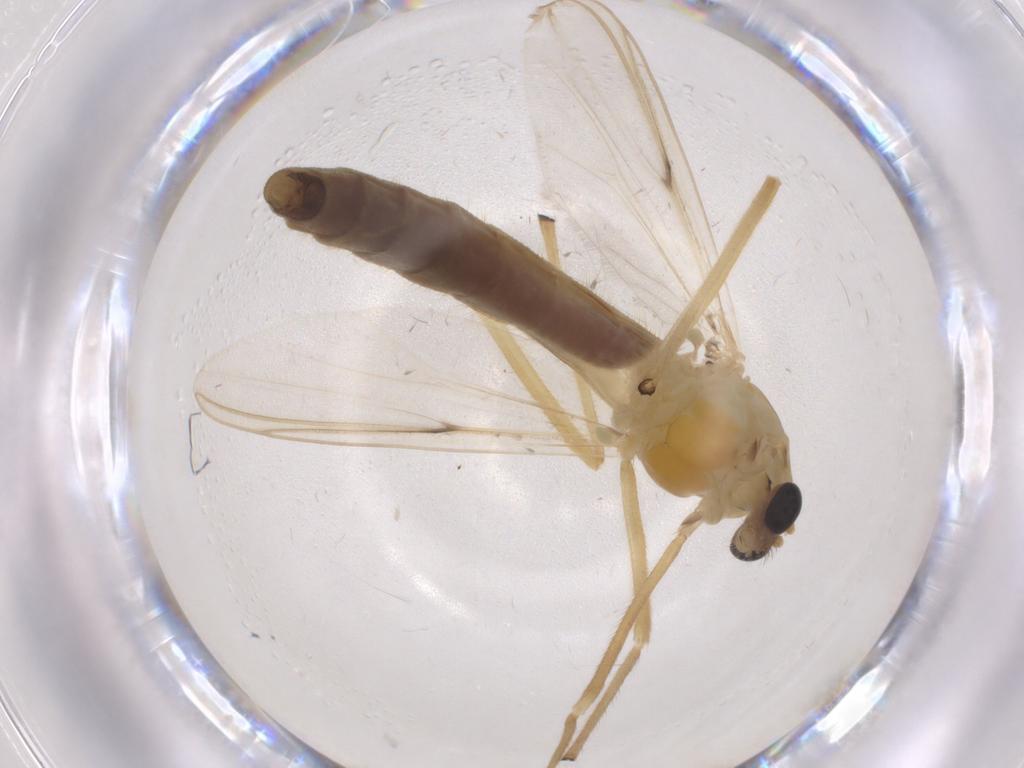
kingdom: Animalia
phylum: Arthropoda
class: Insecta
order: Diptera
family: Chironomidae
